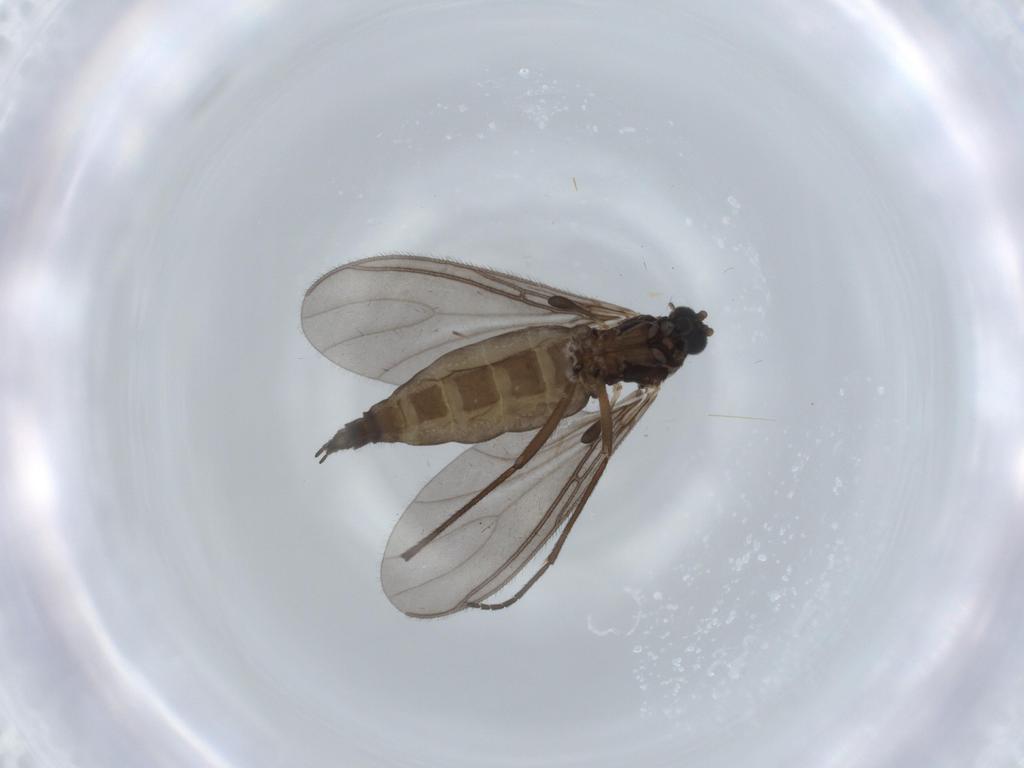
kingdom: Animalia
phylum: Arthropoda
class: Insecta
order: Diptera
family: Sciaridae
